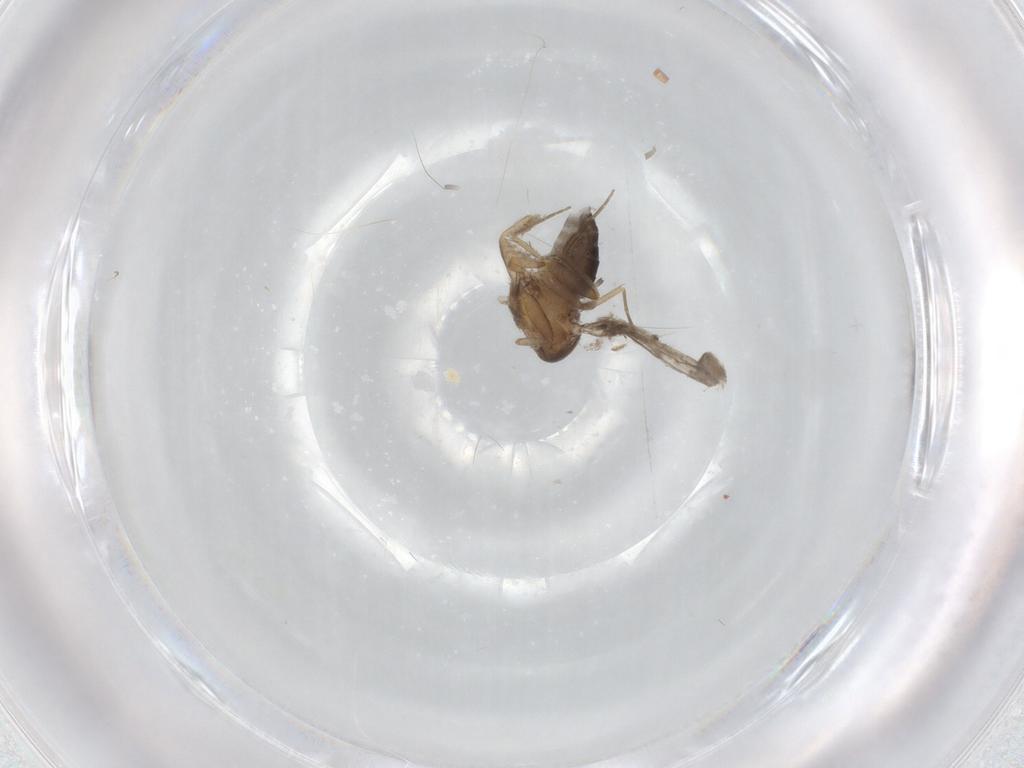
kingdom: Animalia
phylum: Arthropoda
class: Insecta
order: Diptera
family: Phoridae
